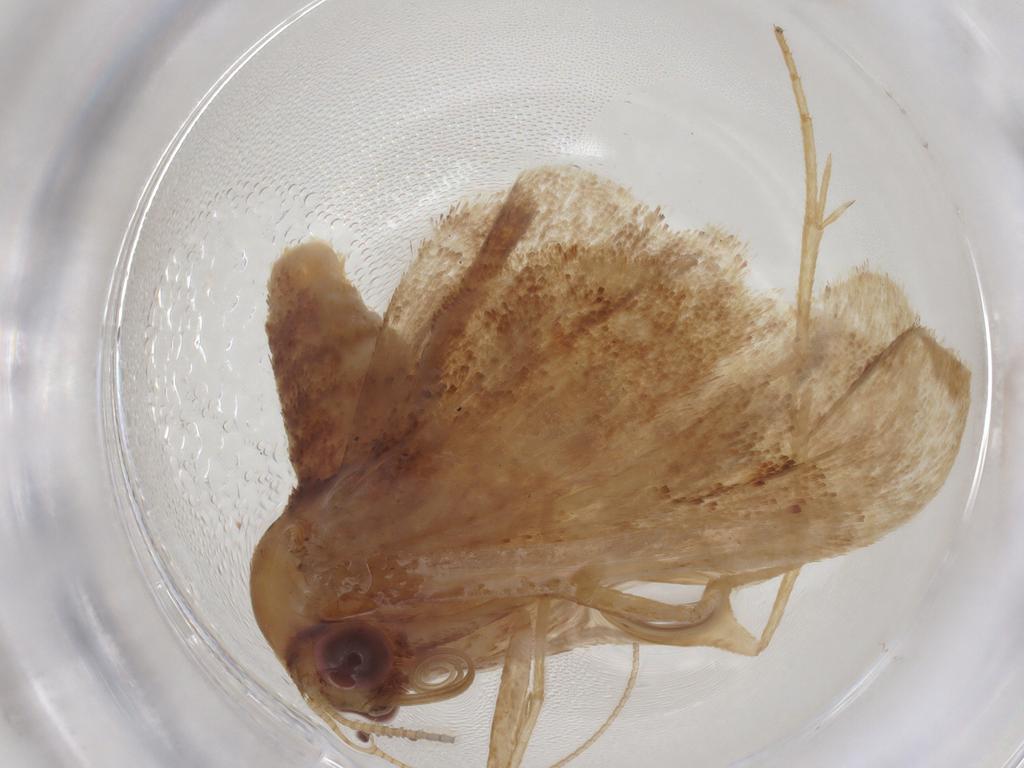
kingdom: Animalia
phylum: Arthropoda
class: Insecta
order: Lepidoptera
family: Geometridae
